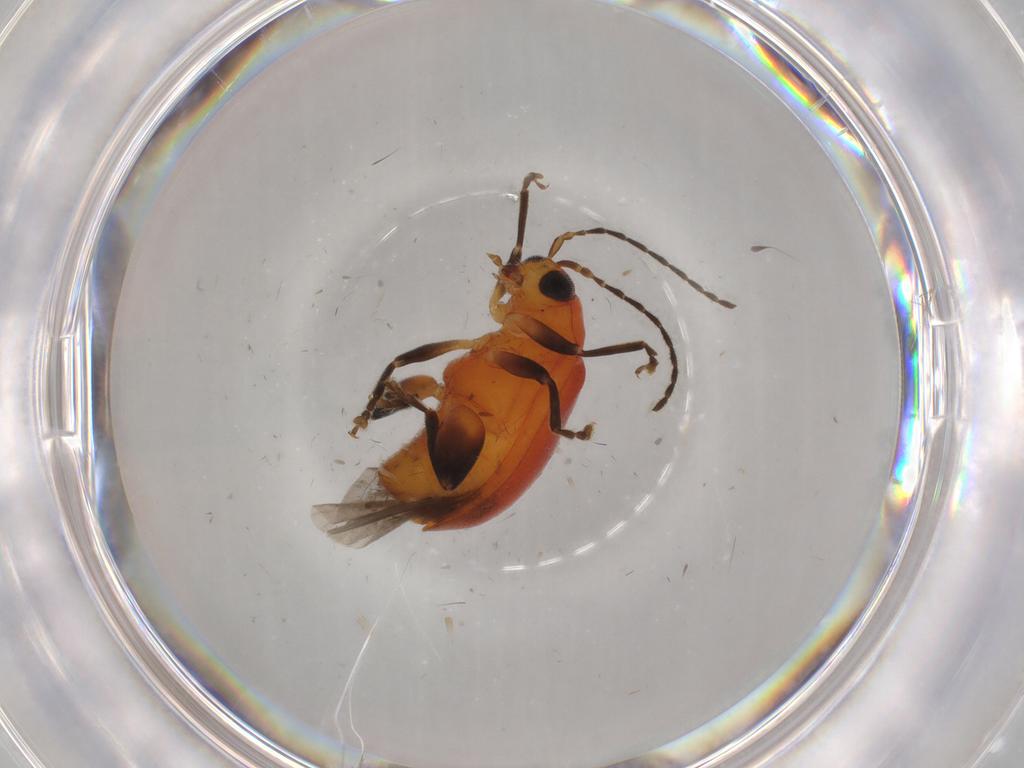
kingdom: Animalia
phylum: Arthropoda
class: Insecta
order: Coleoptera
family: Chrysomelidae
